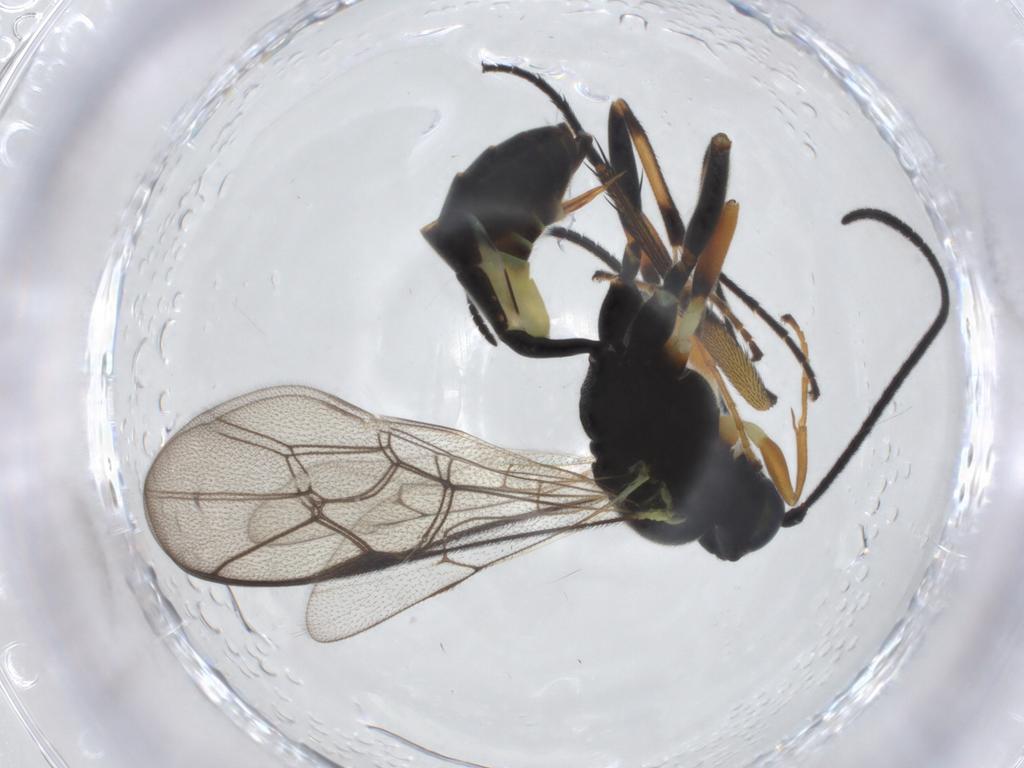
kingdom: Animalia
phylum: Arthropoda
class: Insecta
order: Hymenoptera
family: Ichneumonidae
